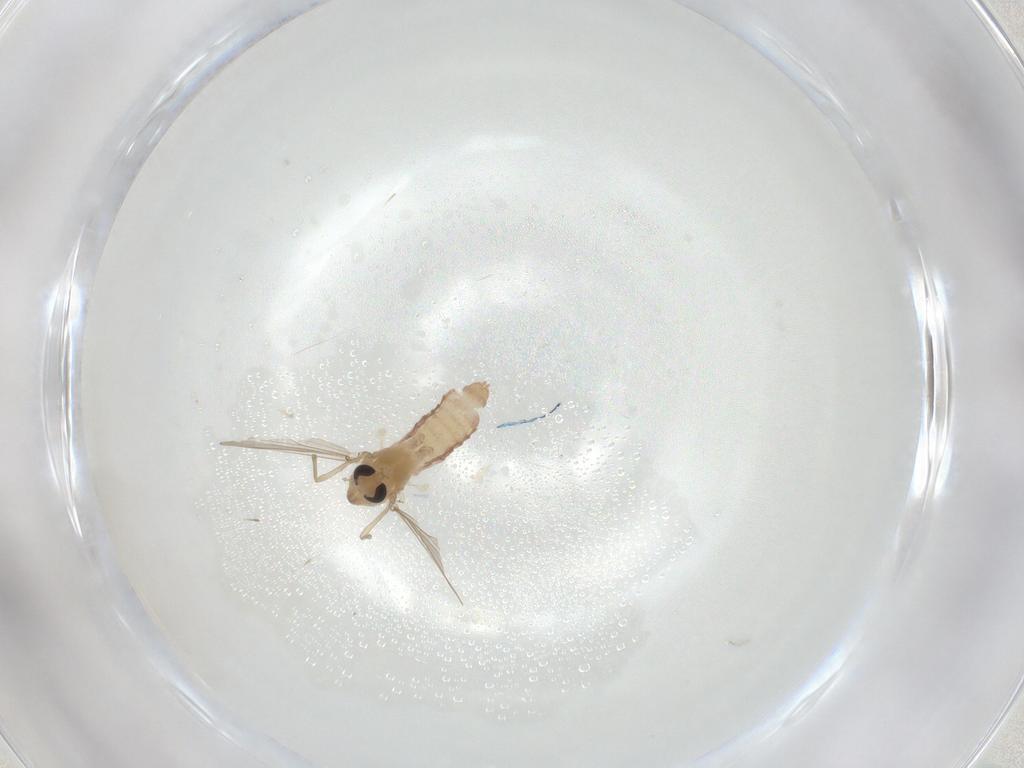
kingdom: Animalia
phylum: Arthropoda
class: Insecta
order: Diptera
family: Chironomidae
